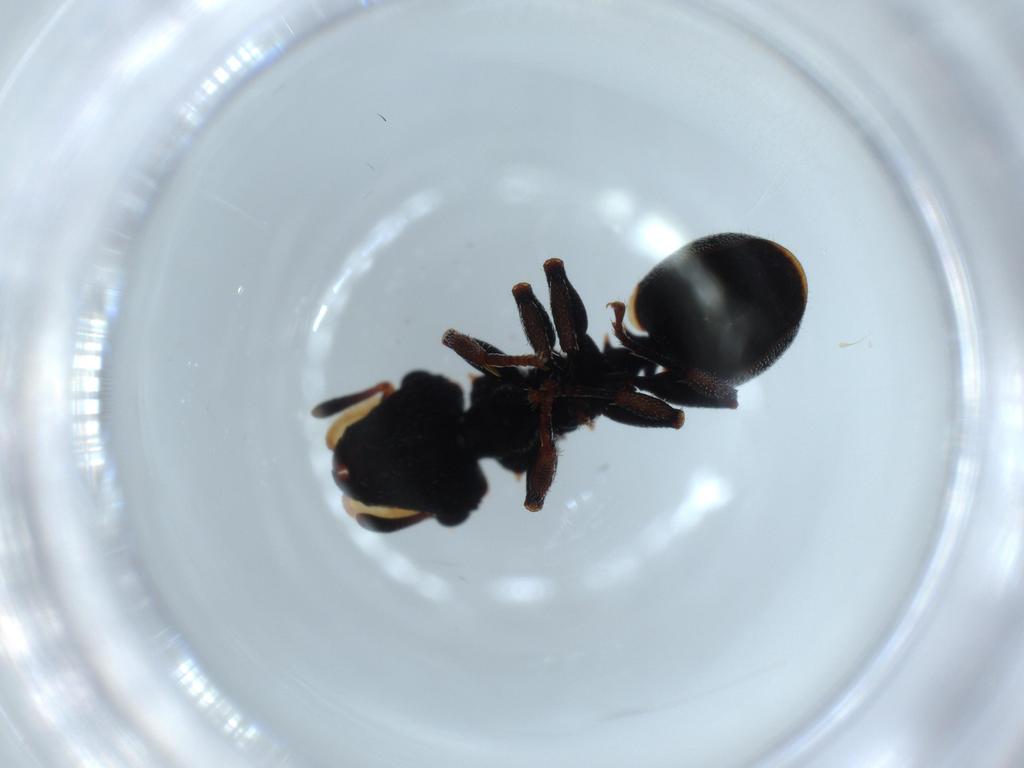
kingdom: Animalia
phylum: Arthropoda
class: Insecta
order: Hymenoptera
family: Formicidae
